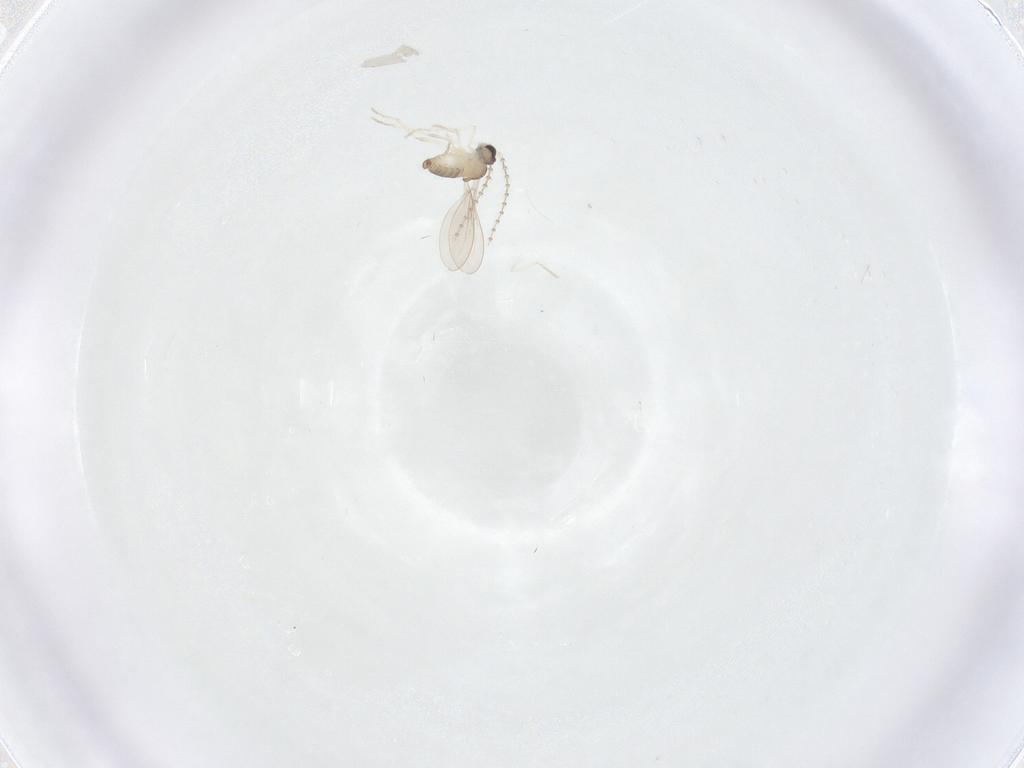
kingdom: Animalia
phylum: Arthropoda
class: Insecta
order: Diptera
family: Cecidomyiidae
